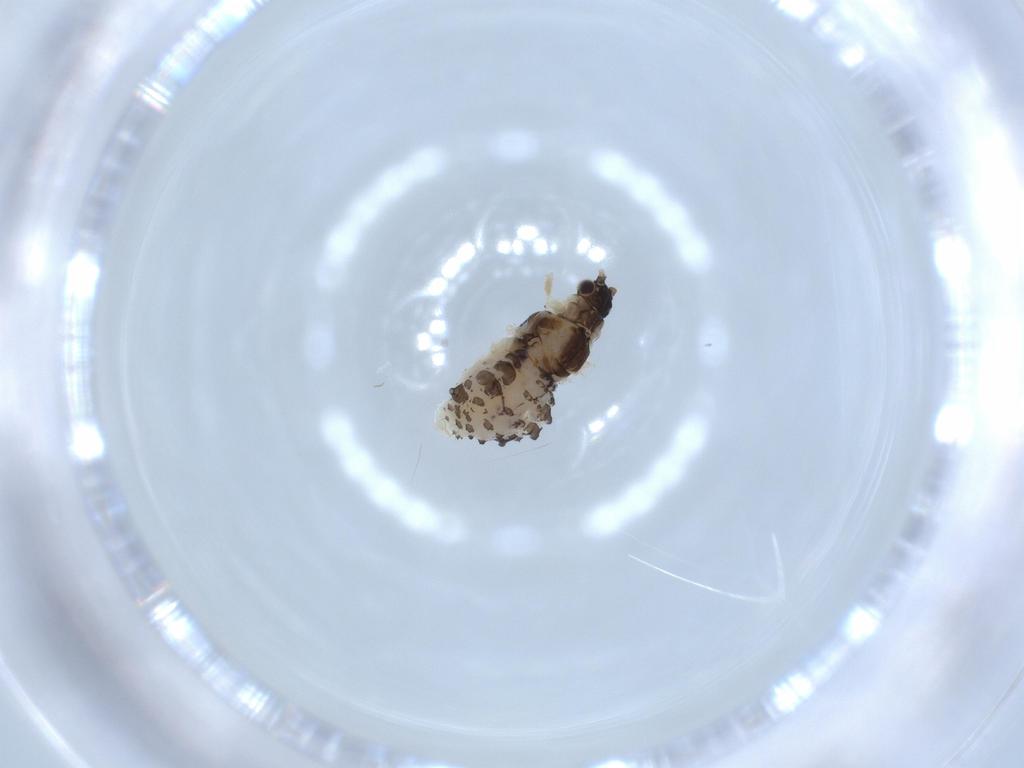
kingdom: Animalia
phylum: Arthropoda
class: Insecta
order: Hemiptera
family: Aphididae
